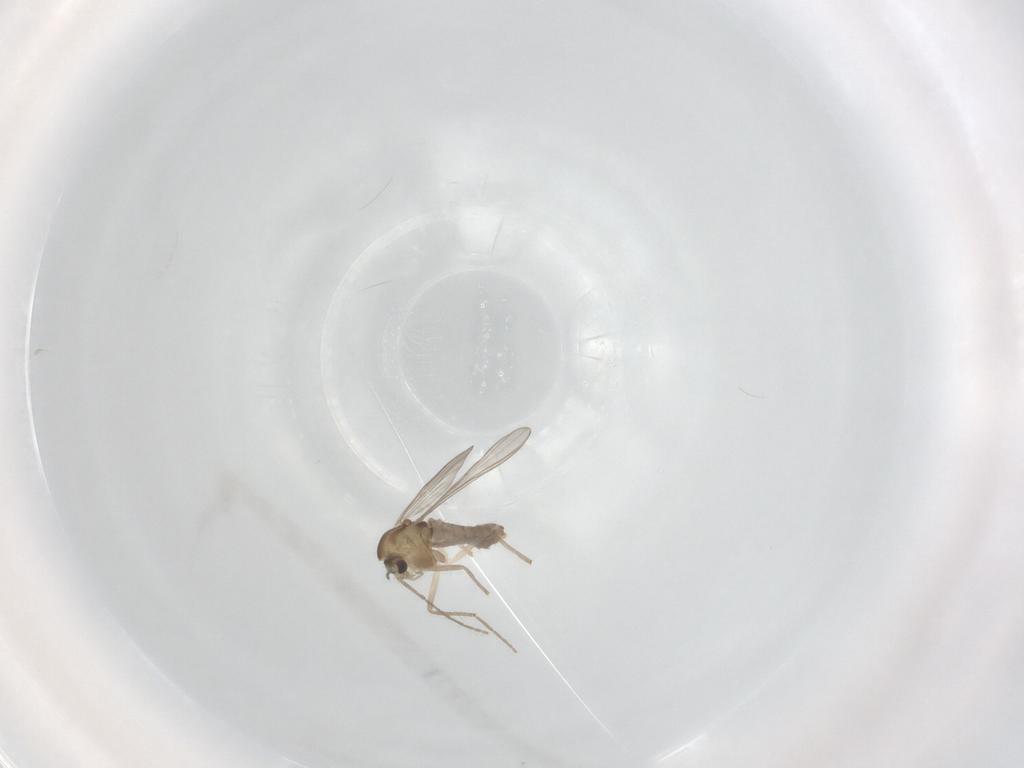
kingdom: Animalia
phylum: Arthropoda
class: Insecta
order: Diptera
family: Chironomidae
